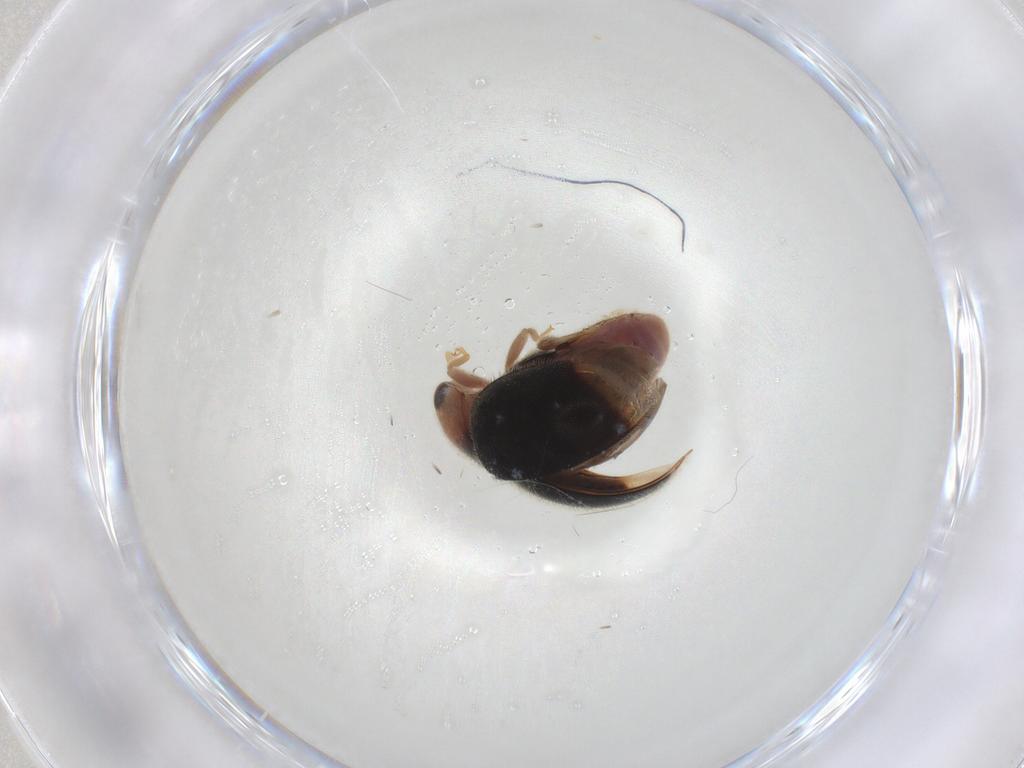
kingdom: Animalia
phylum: Arthropoda
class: Insecta
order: Coleoptera
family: Coccinellidae
